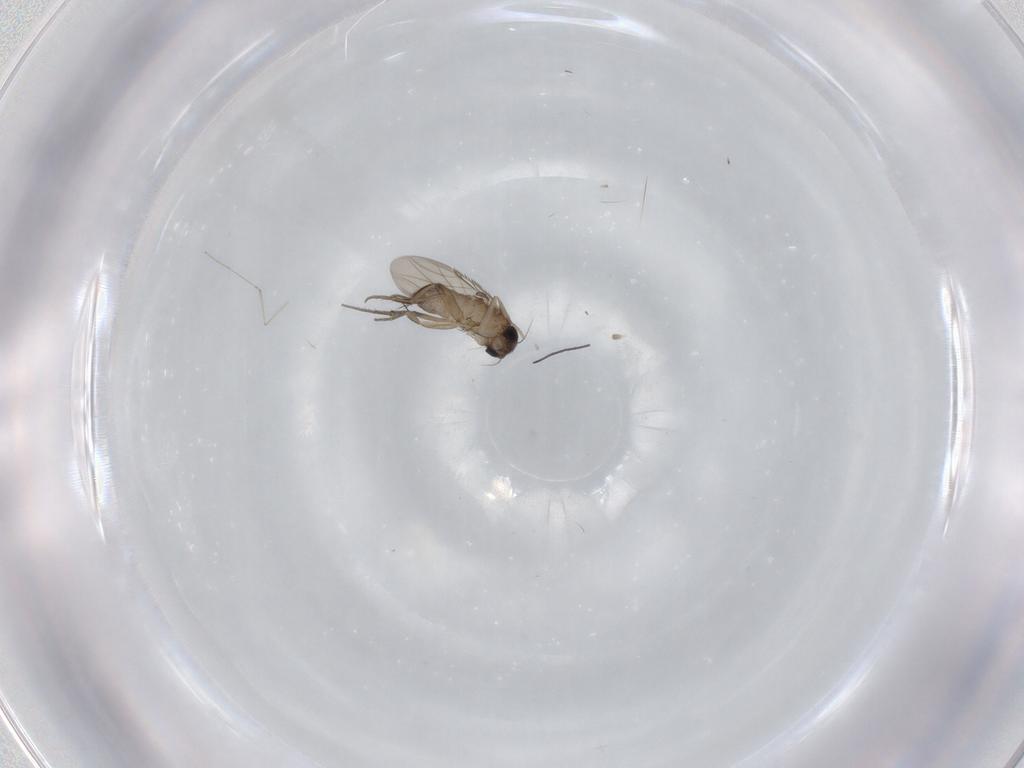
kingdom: Animalia
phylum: Arthropoda
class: Insecta
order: Diptera
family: Phoridae
